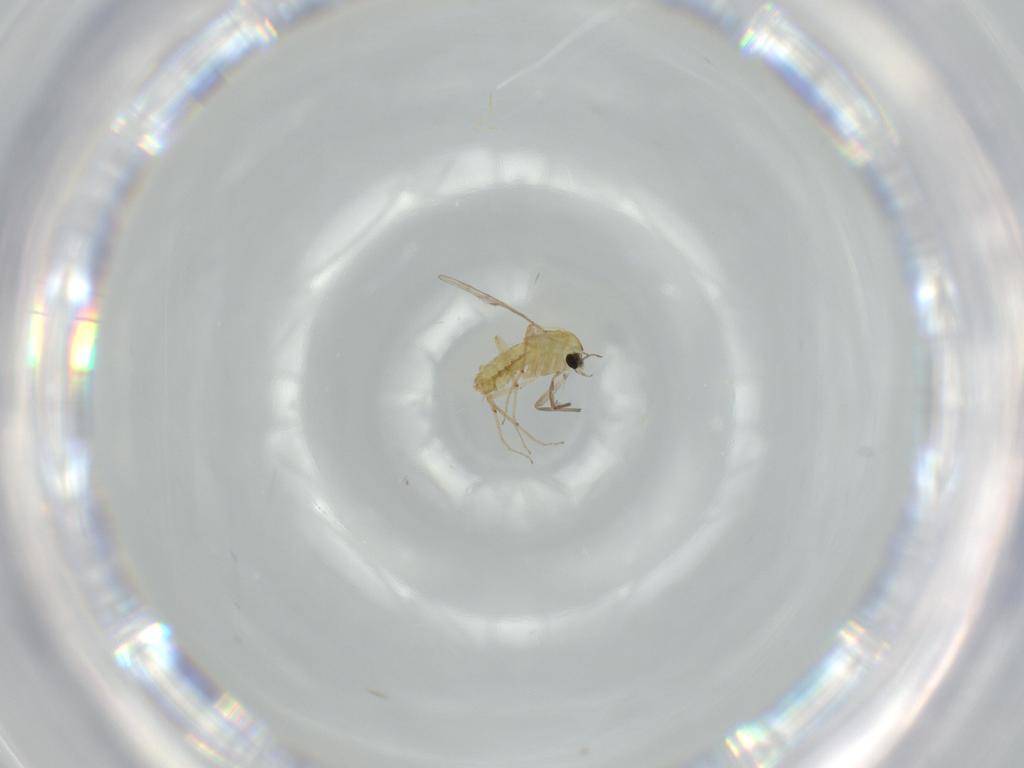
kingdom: Animalia
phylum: Arthropoda
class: Insecta
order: Diptera
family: Chironomidae
